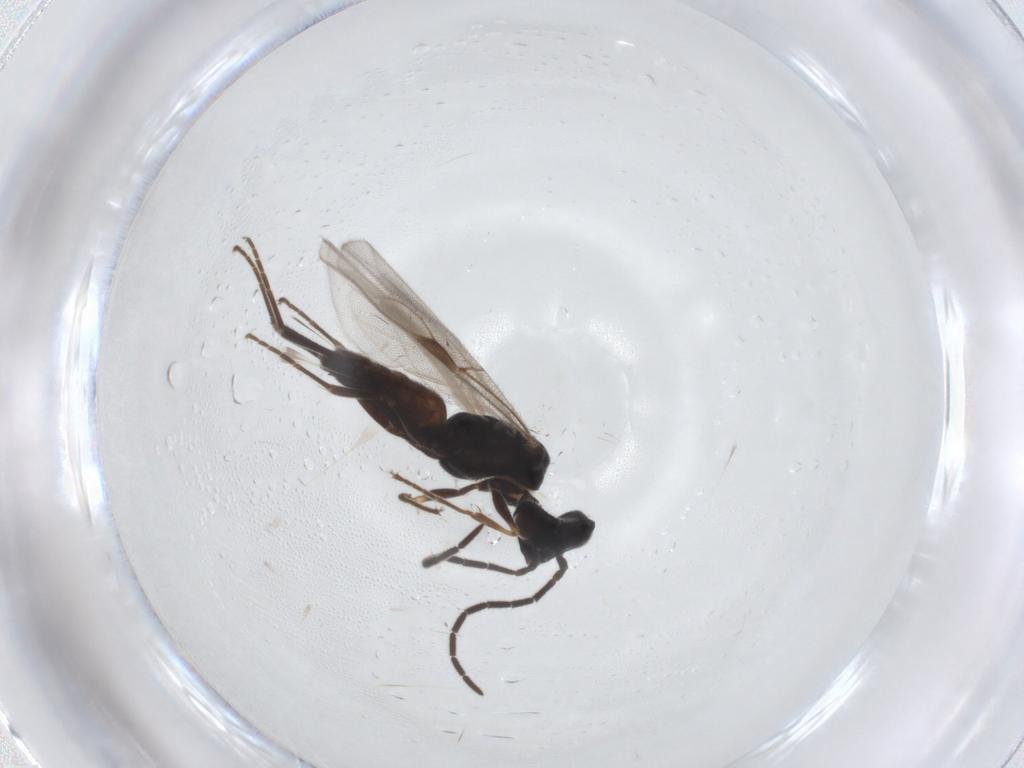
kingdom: Animalia
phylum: Arthropoda
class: Insecta
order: Hymenoptera
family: Dryinidae
